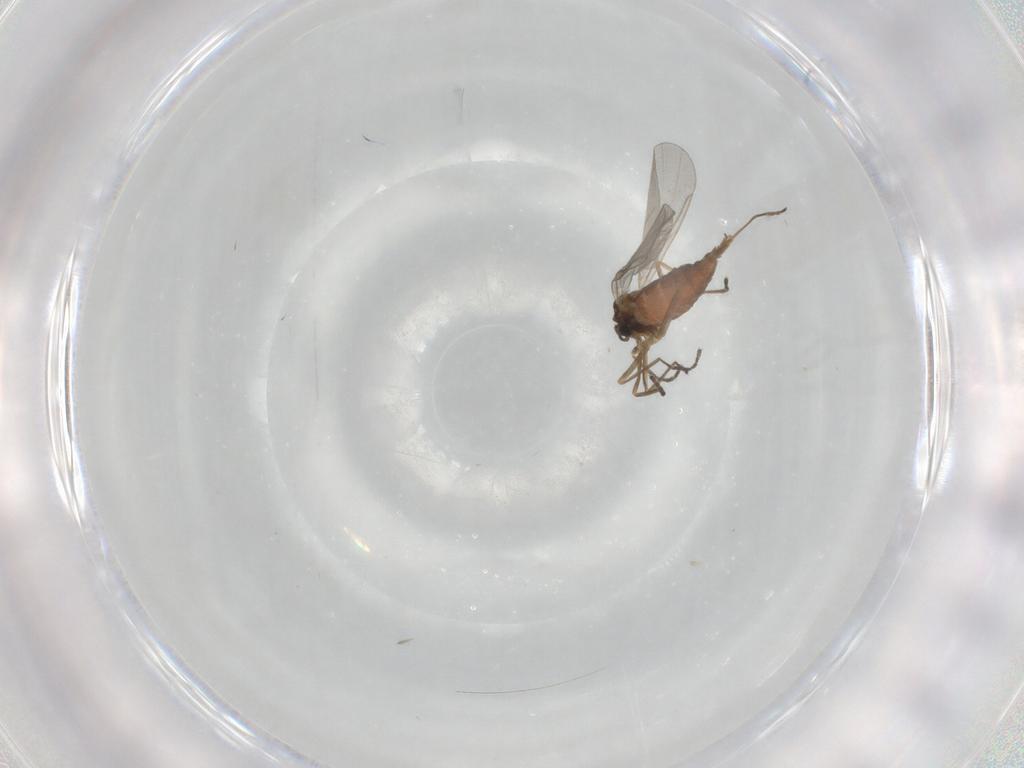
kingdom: Animalia
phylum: Arthropoda
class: Insecta
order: Diptera
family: Cecidomyiidae
